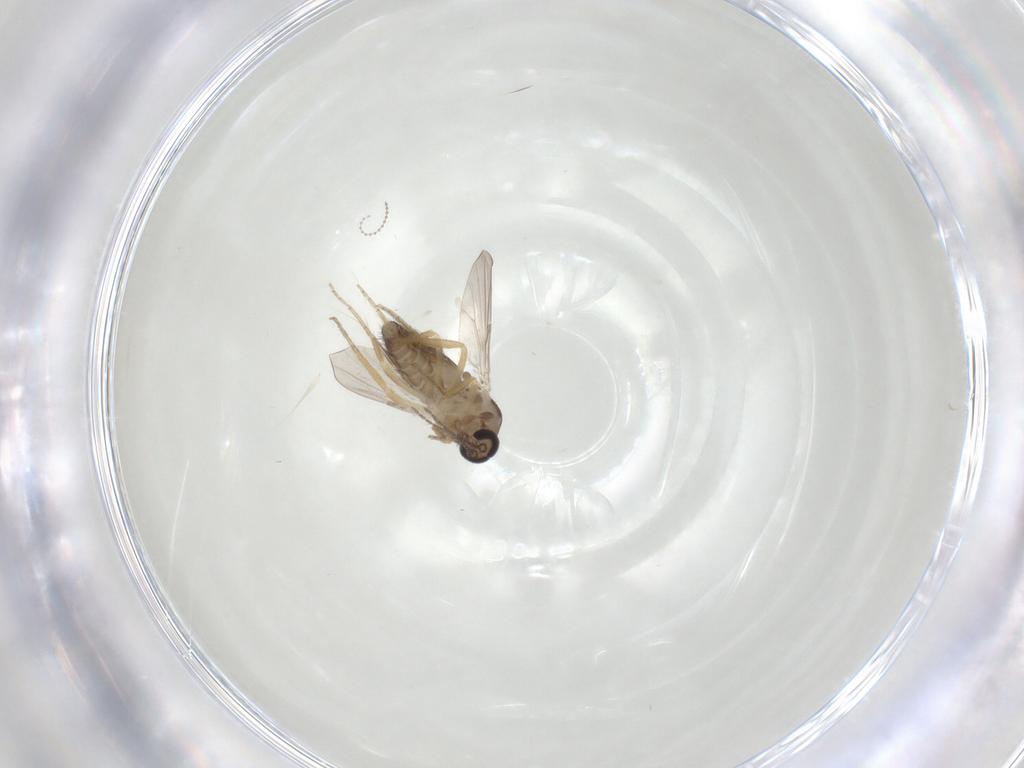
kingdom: Animalia
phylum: Arthropoda
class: Insecta
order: Diptera
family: Ceratopogonidae
